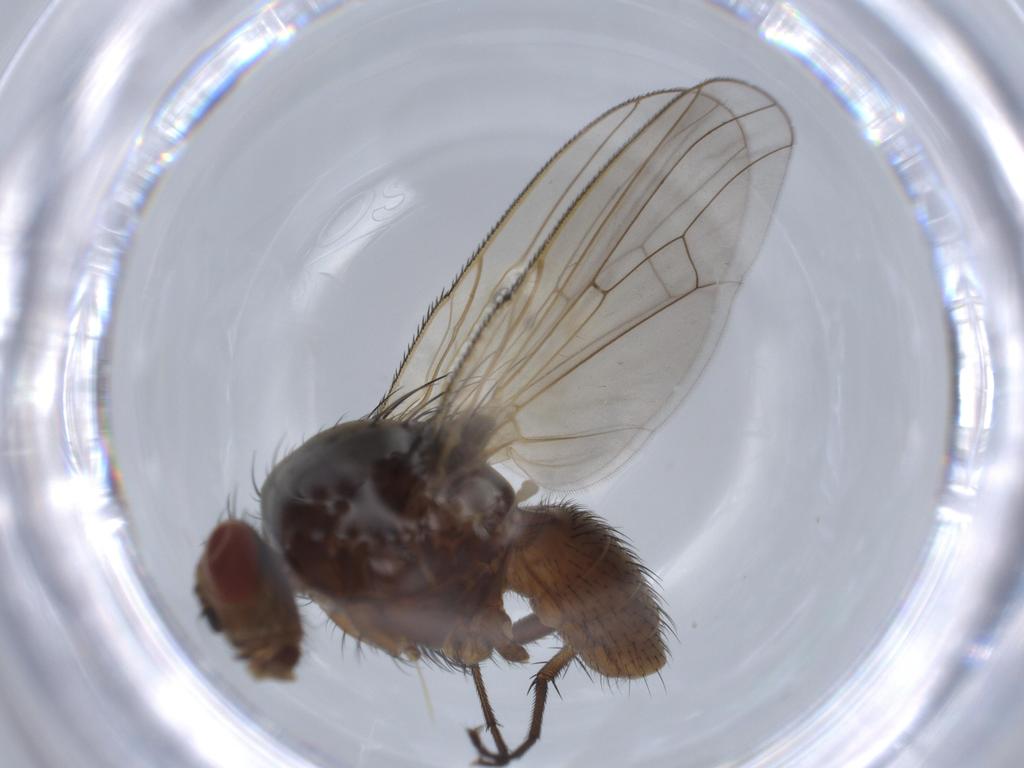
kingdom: Animalia
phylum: Arthropoda
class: Insecta
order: Diptera
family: Anthomyiidae
